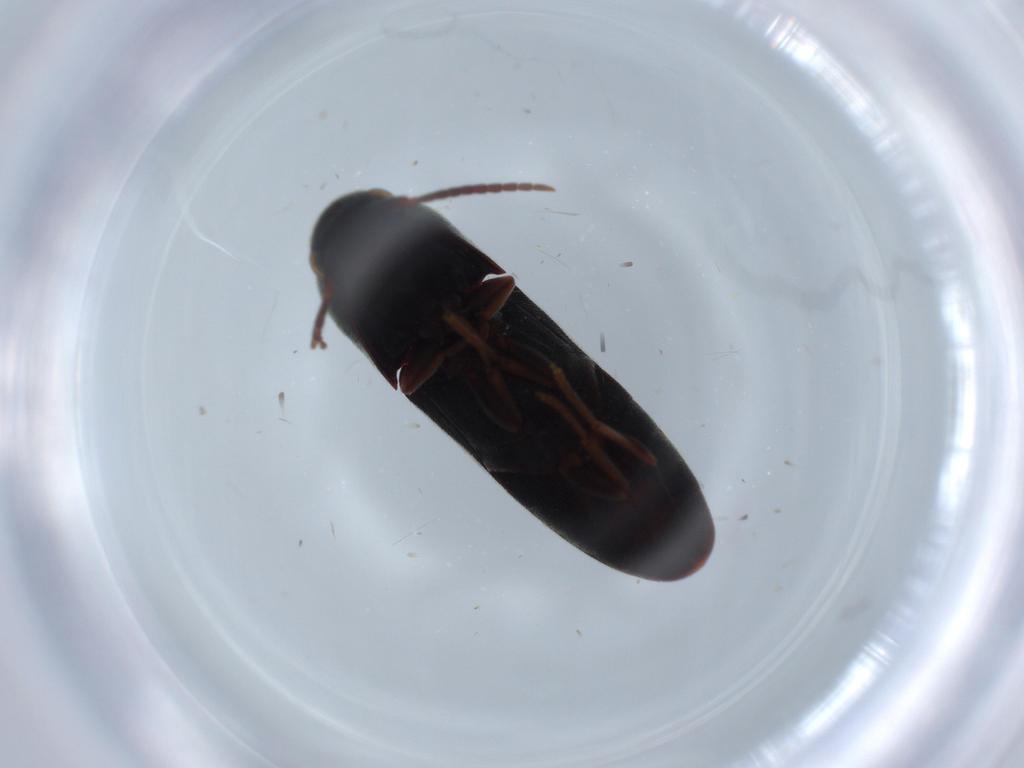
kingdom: Animalia
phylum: Arthropoda
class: Insecta
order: Coleoptera
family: Eucnemidae
